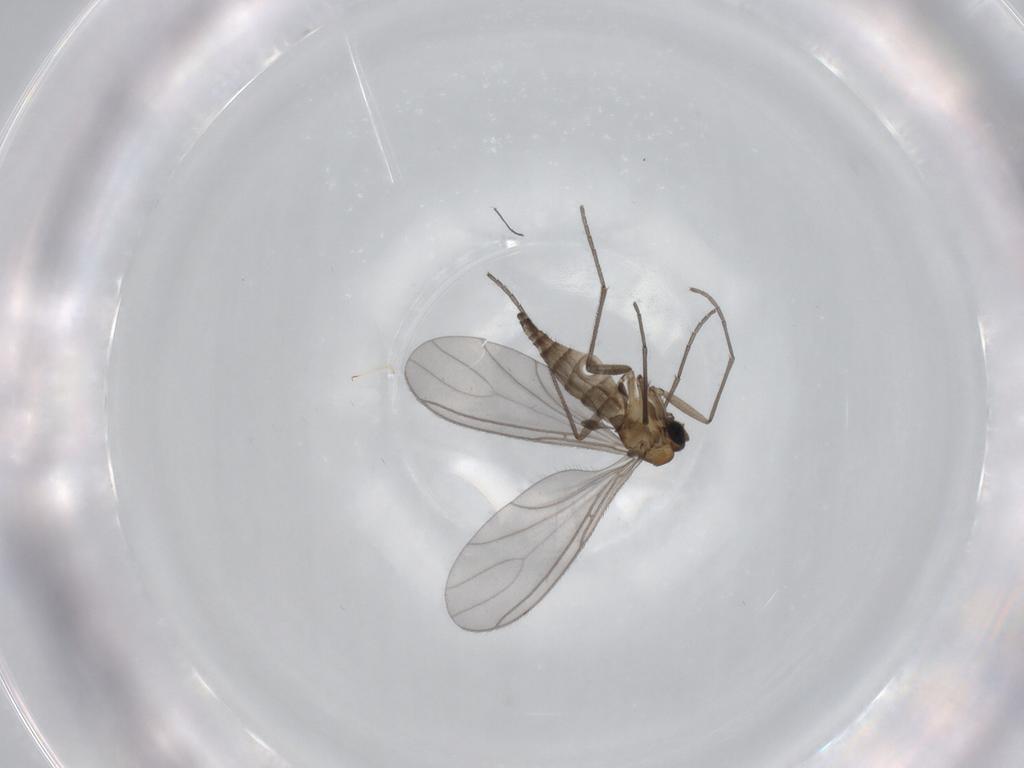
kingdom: Animalia
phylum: Arthropoda
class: Insecta
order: Diptera
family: Sciaridae
